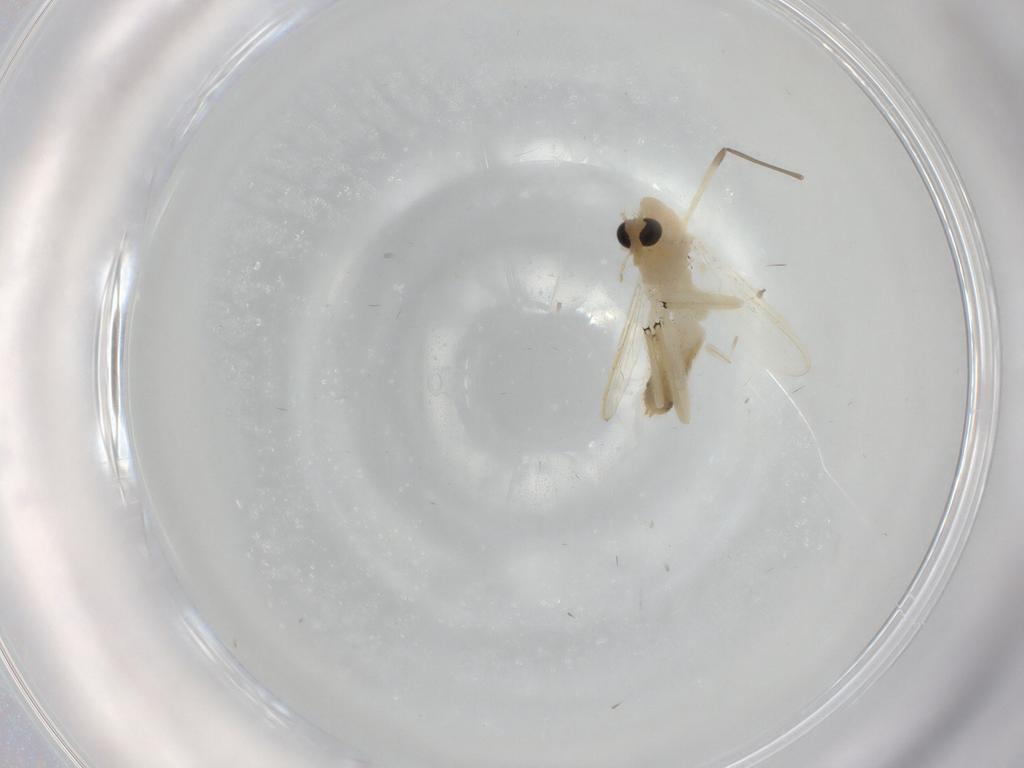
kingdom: Animalia
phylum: Arthropoda
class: Insecta
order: Diptera
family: Chironomidae
